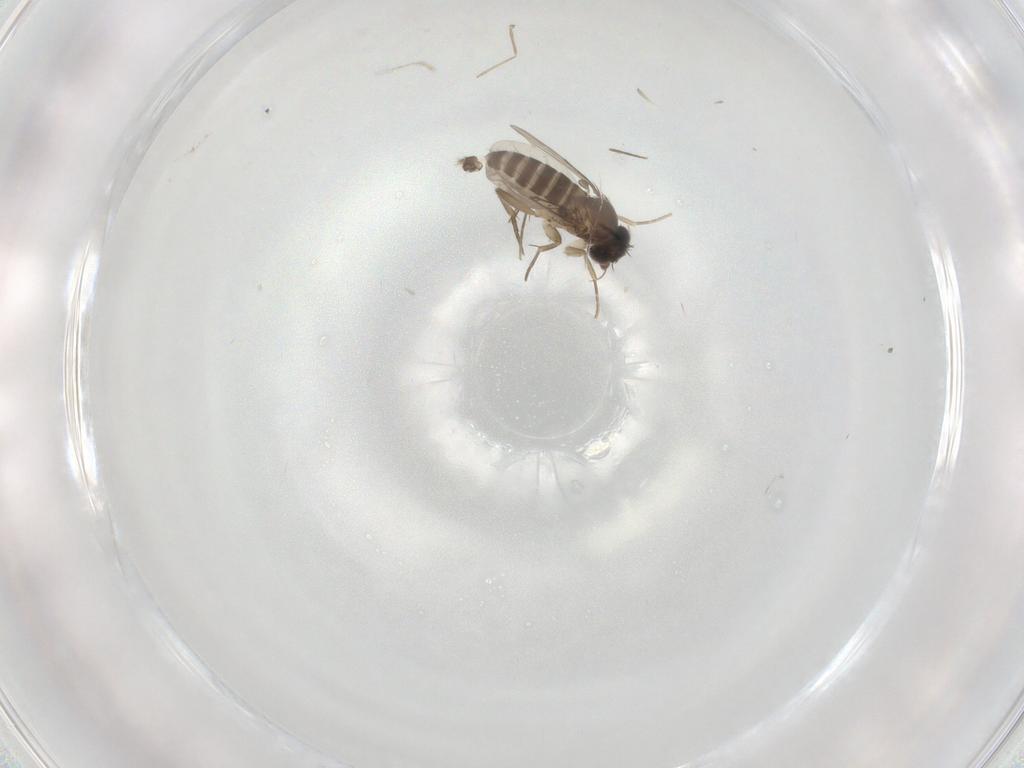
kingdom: Animalia
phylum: Arthropoda
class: Insecta
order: Diptera
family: Phoridae
